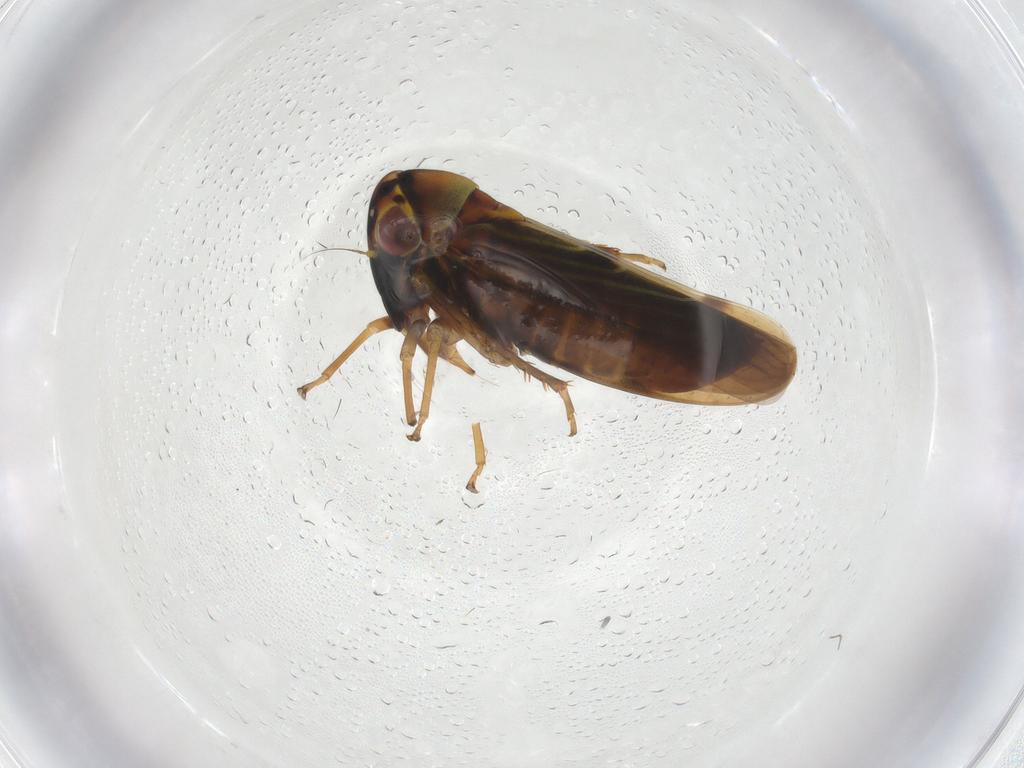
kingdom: Animalia
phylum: Arthropoda
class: Insecta
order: Hemiptera
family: Cicadellidae
